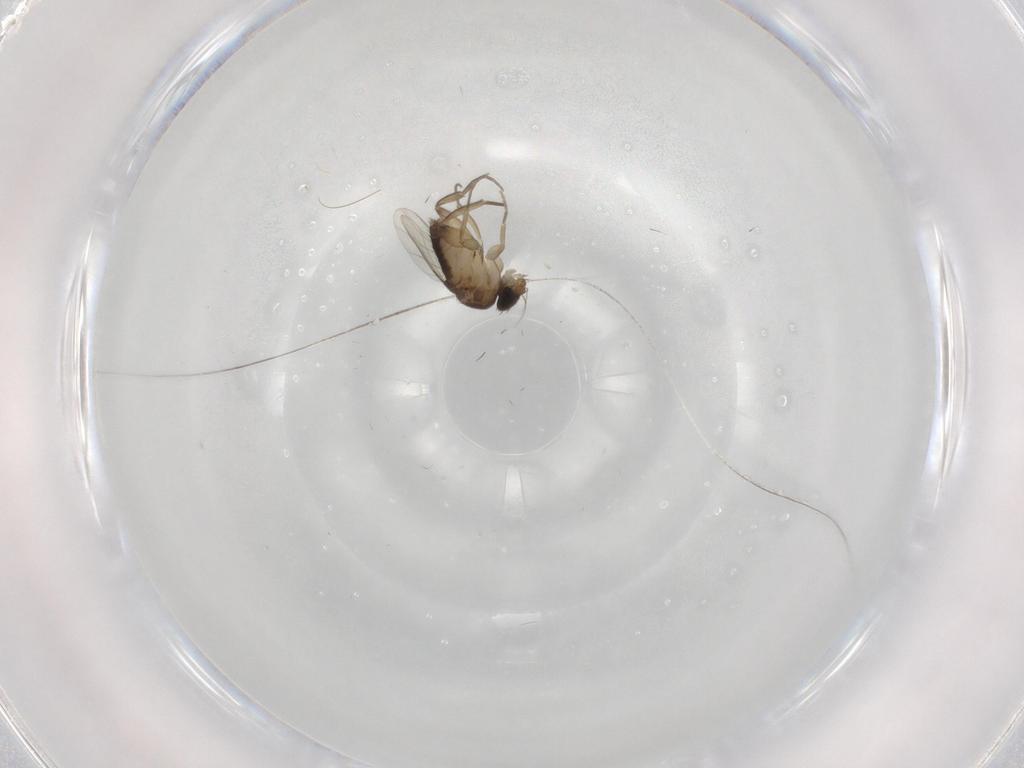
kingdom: Animalia
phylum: Arthropoda
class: Insecta
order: Diptera
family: Phoridae
